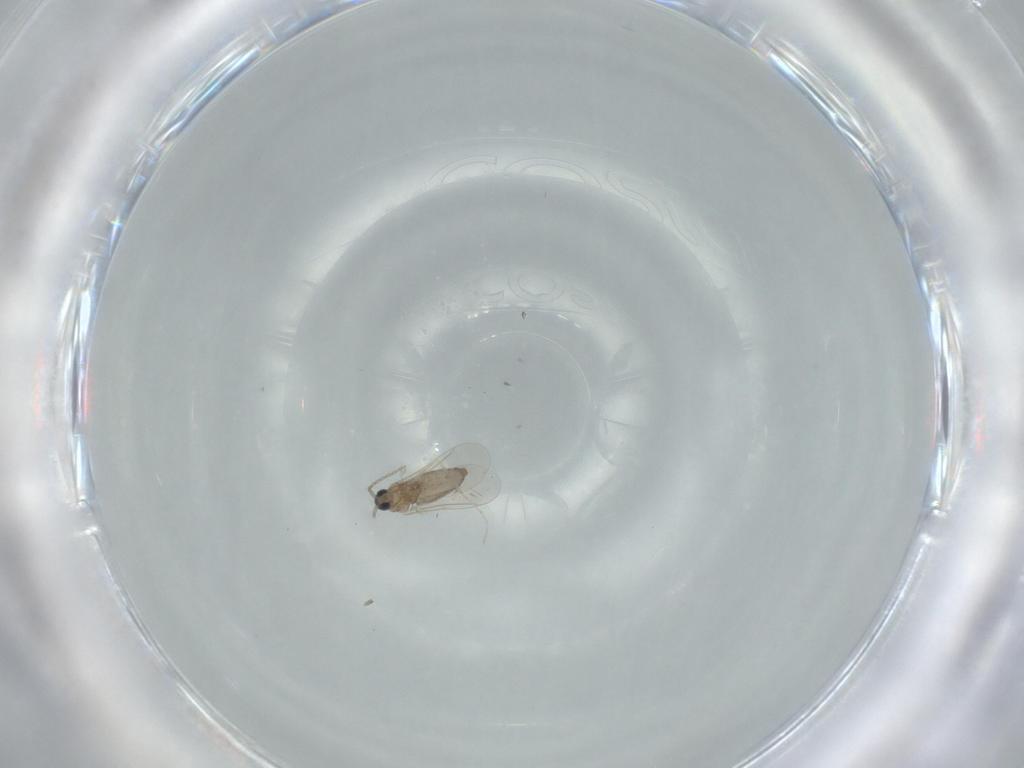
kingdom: Animalia
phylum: Arthropoda
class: Insecta
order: Diptera
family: Cecidomyiidae
